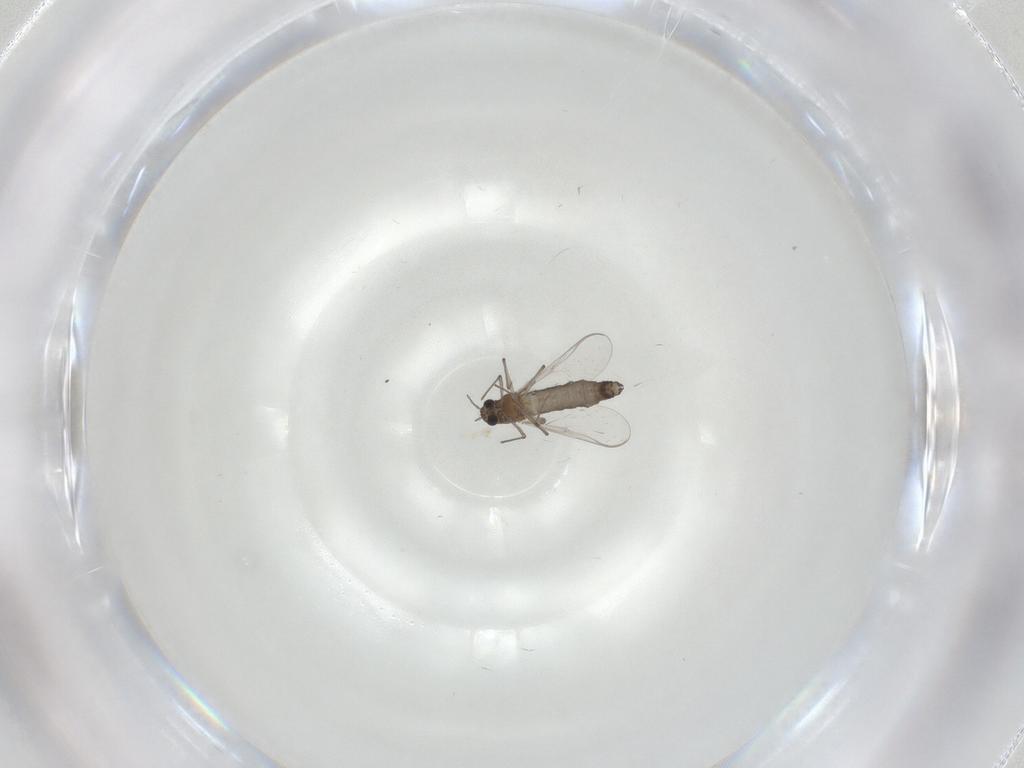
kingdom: Animalia
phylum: Arthropoda
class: Insecta
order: Diptera
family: Chironomidae
